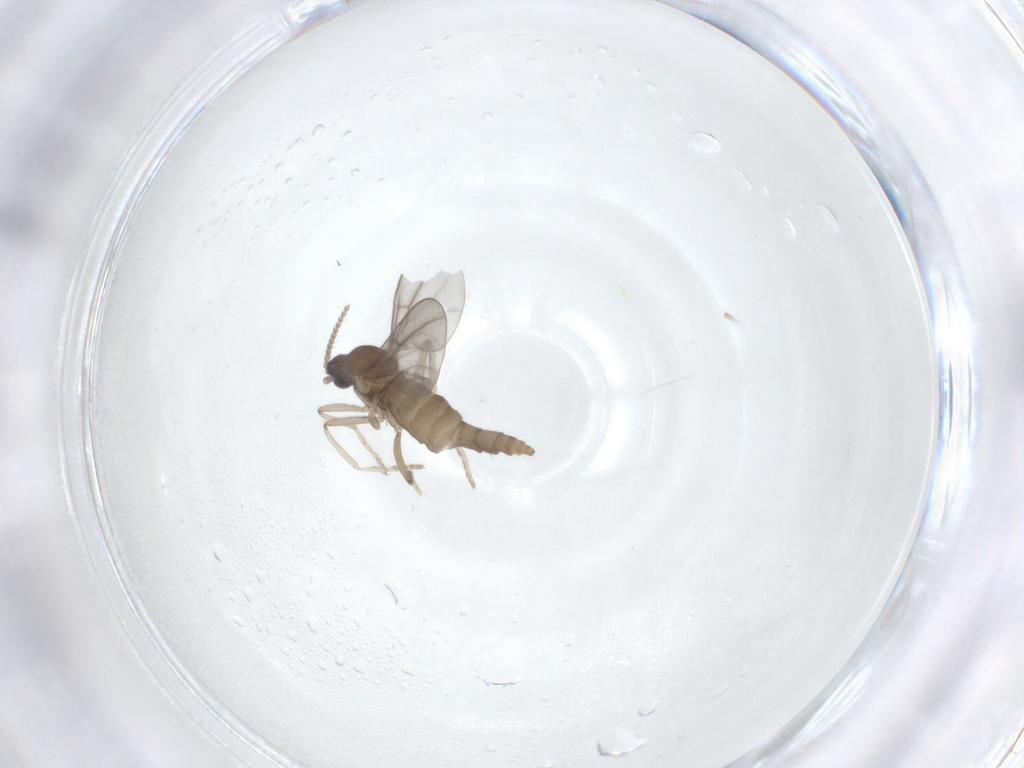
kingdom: Animalia
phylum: Arthropoda
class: Insecta
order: Diptera
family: Cecidomyiidae
